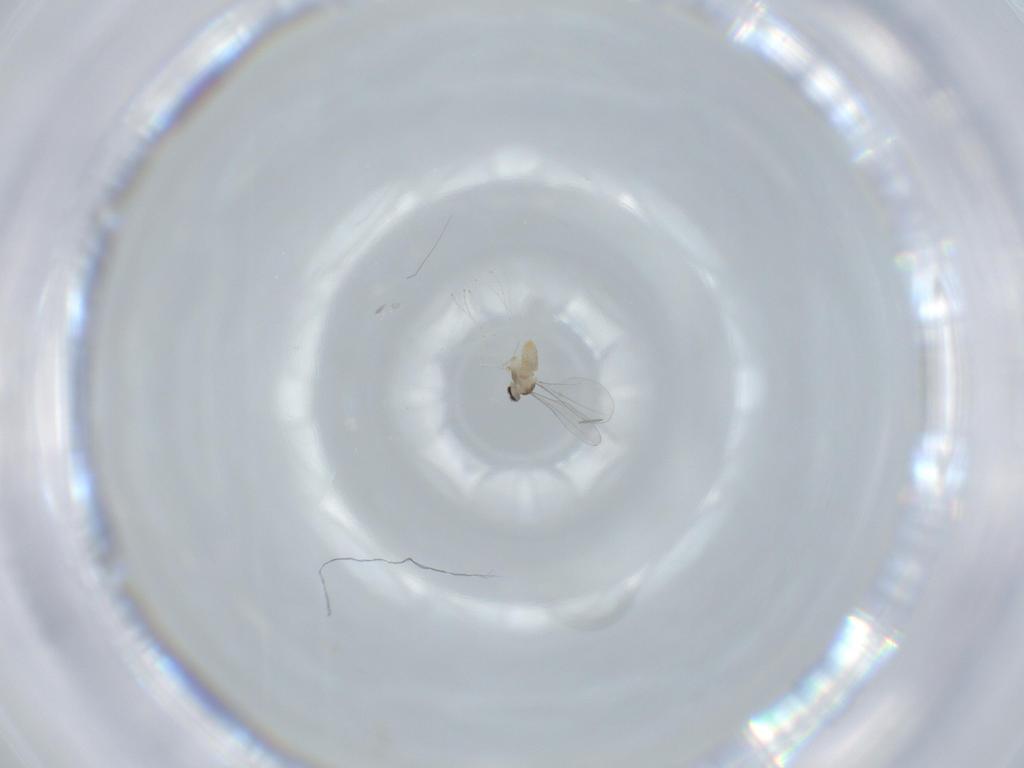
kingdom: Animalia
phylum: Arthropoda
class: Insecta
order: Diptera
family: Cecidomyiidae
